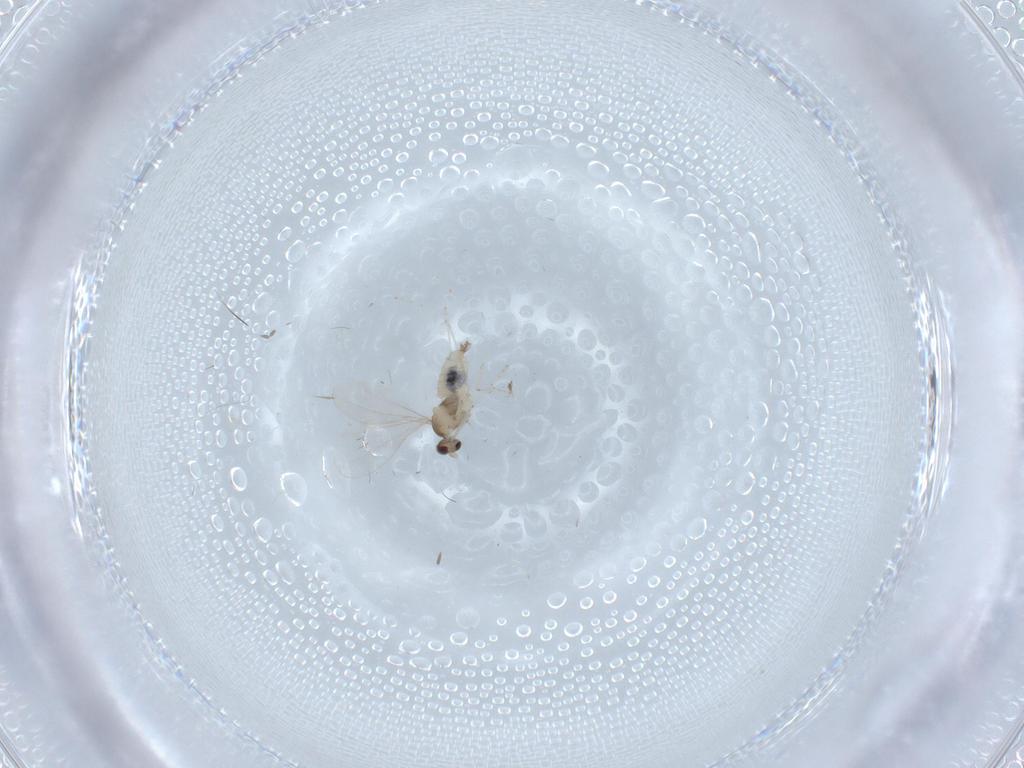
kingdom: Animalia
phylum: Arthropoda
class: Insecta
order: Diptera
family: Cecidomyiidae
